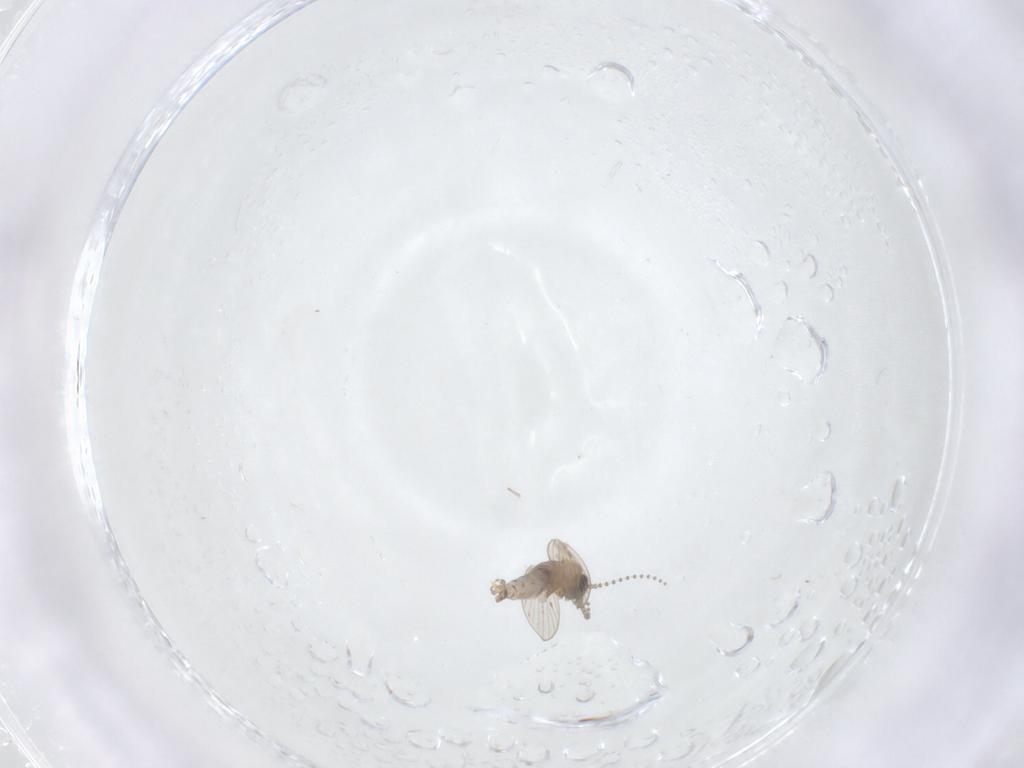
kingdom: Animalia
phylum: Arthropoda
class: Insecta
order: Diptera
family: Psychodidae
